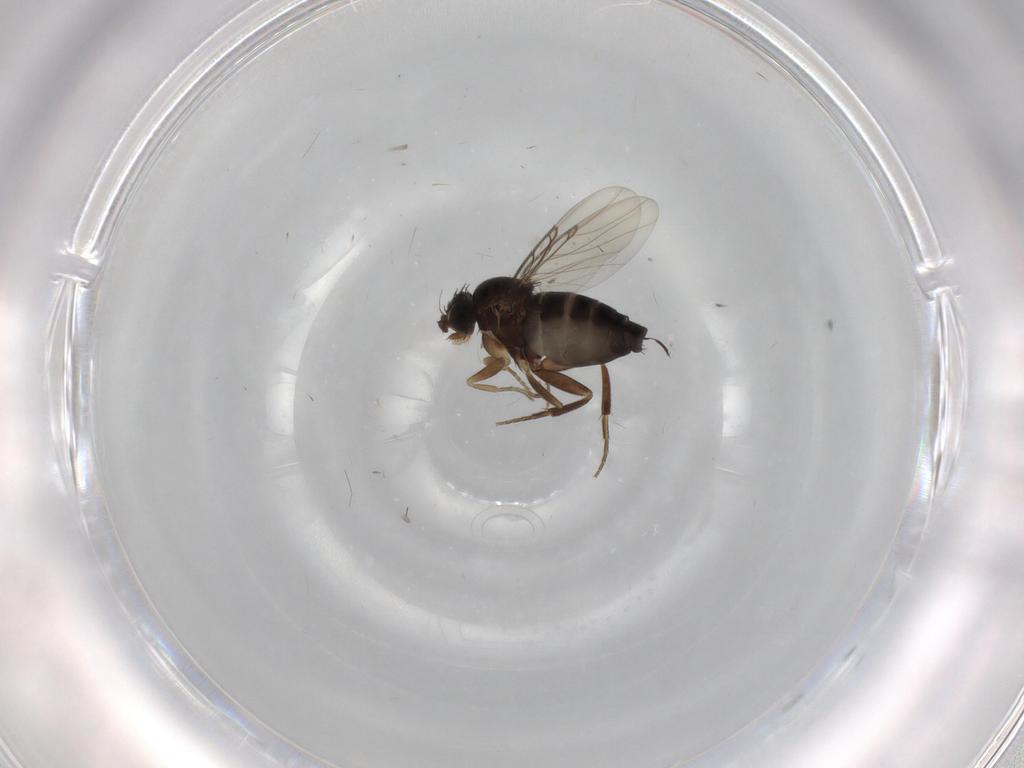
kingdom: Animalia
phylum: Arthropoda
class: Insecta
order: Diptera
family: Phoridae
